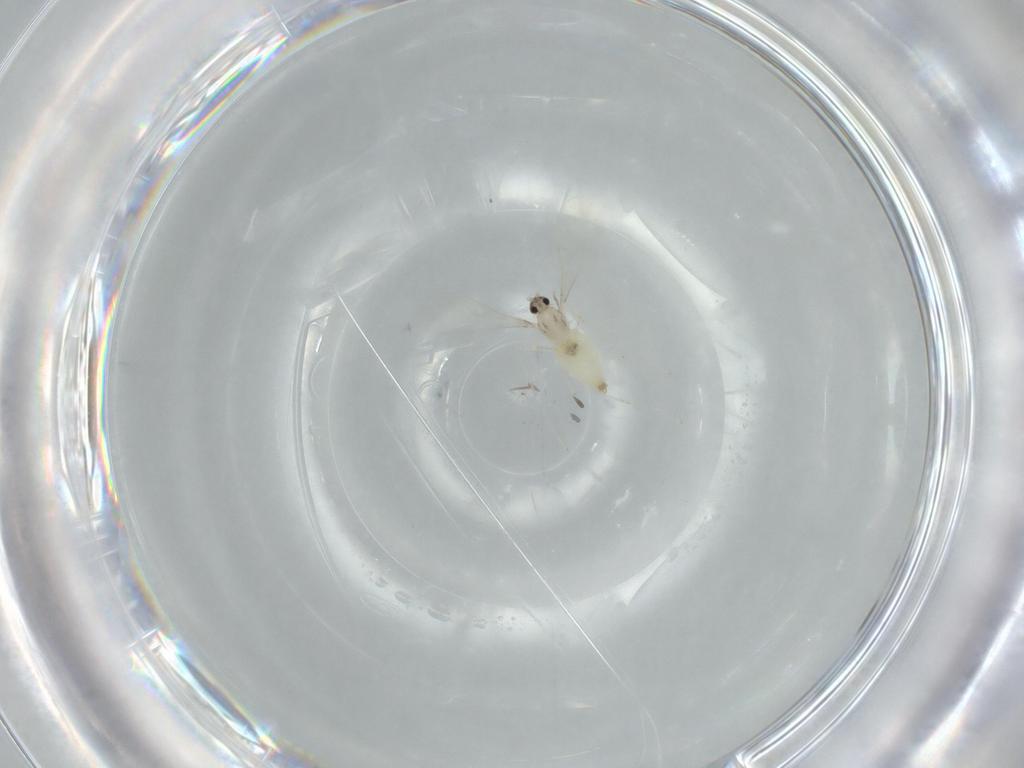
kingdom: Animalia
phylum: Arthropoda
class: Insecta
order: Diptera
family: Cecidomyiidae
